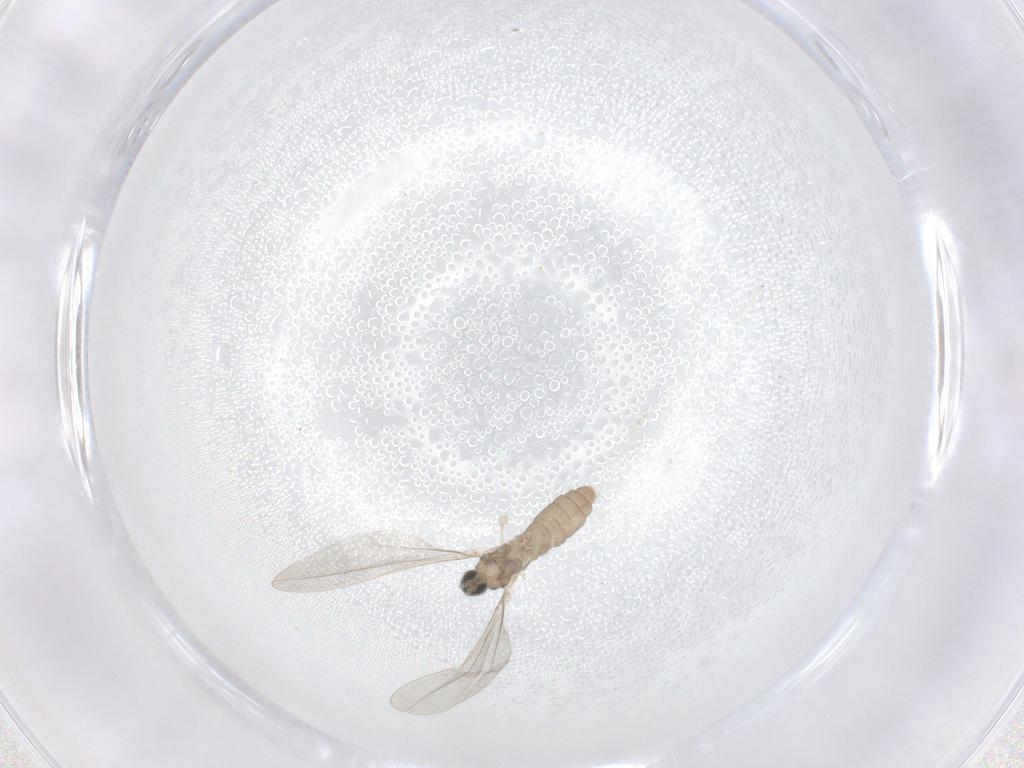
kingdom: Animalia
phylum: Arthropoda
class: Insecta
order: Diptera
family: Cecidomyiidae
